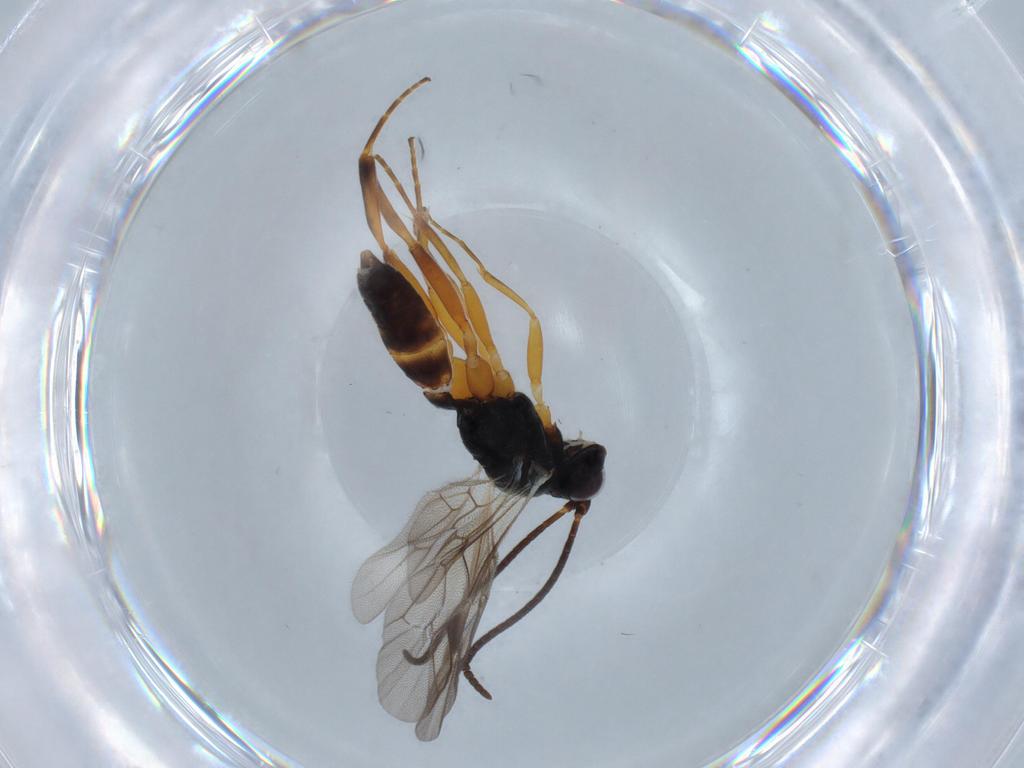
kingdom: Animalia
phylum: Arthropoda
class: Insecta
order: Hymenoptera
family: Ichneumonidae
